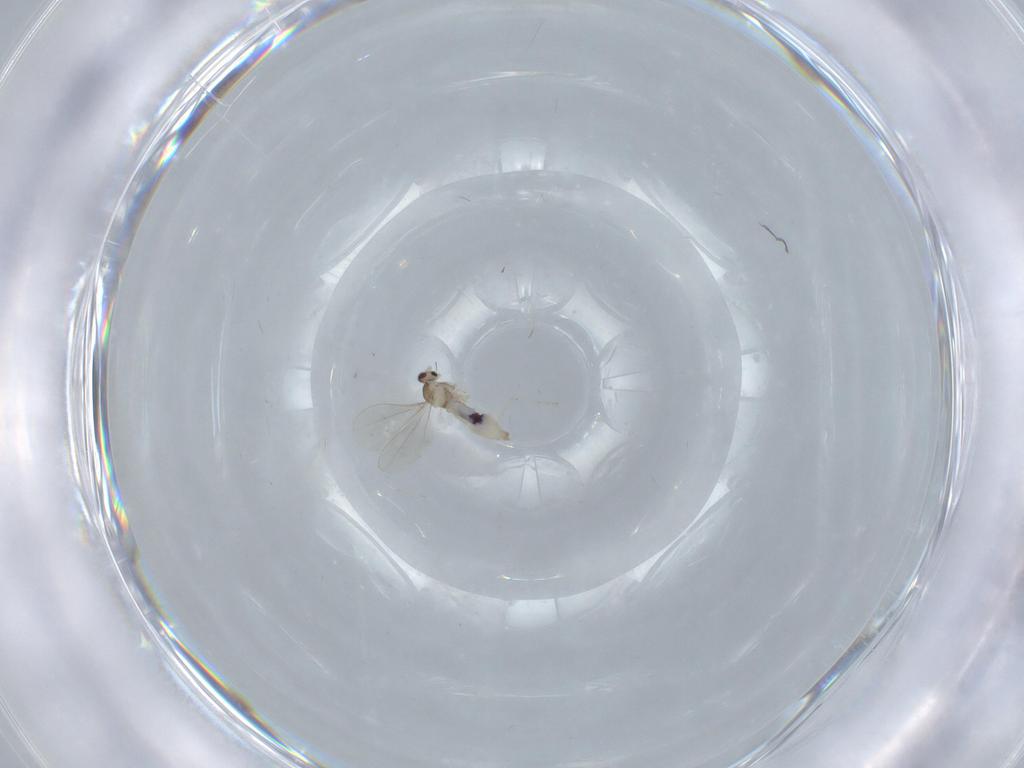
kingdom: Animalia
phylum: Arthropoda
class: Insecta
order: Diptera
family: Cecidomyiidae
